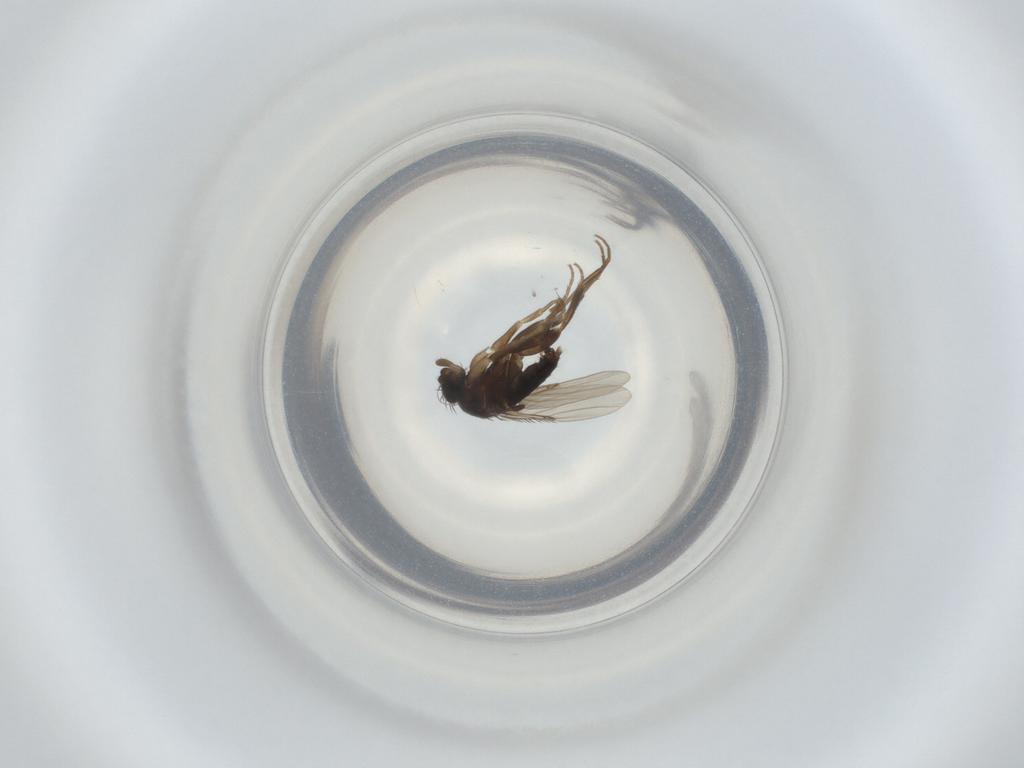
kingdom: Animalia
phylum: Arthropoda
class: Insecta
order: Diptera
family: Phoridae
